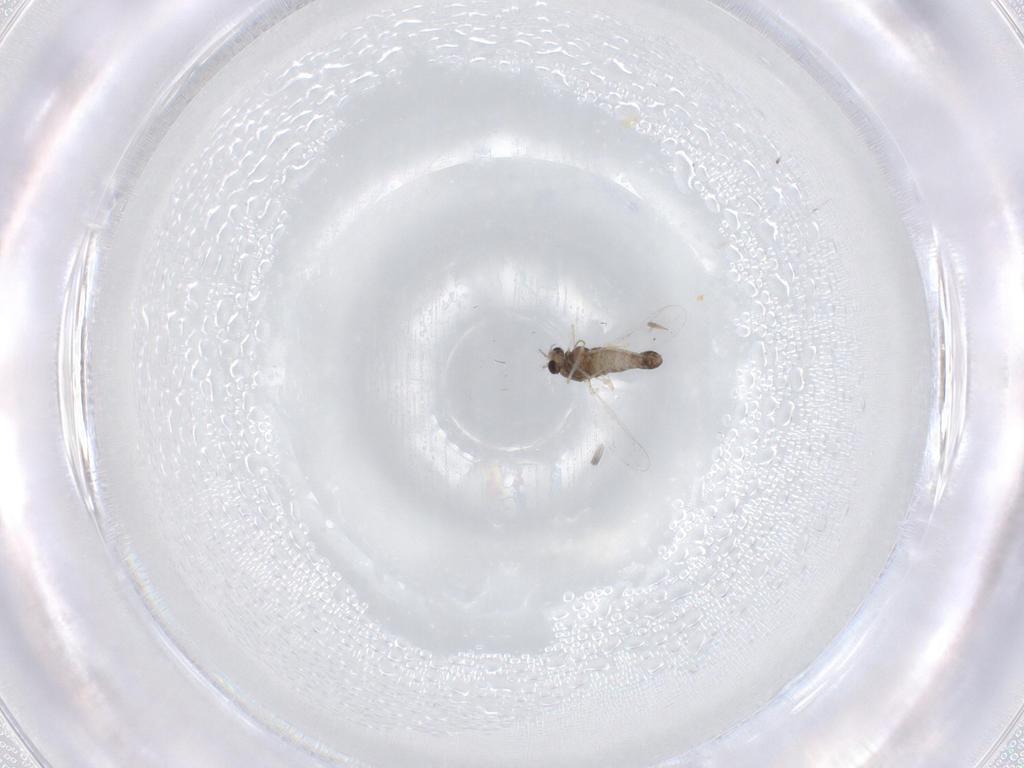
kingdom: Animalia
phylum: Arthropoda
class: Insecta
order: Diptera
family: Chironomidae
